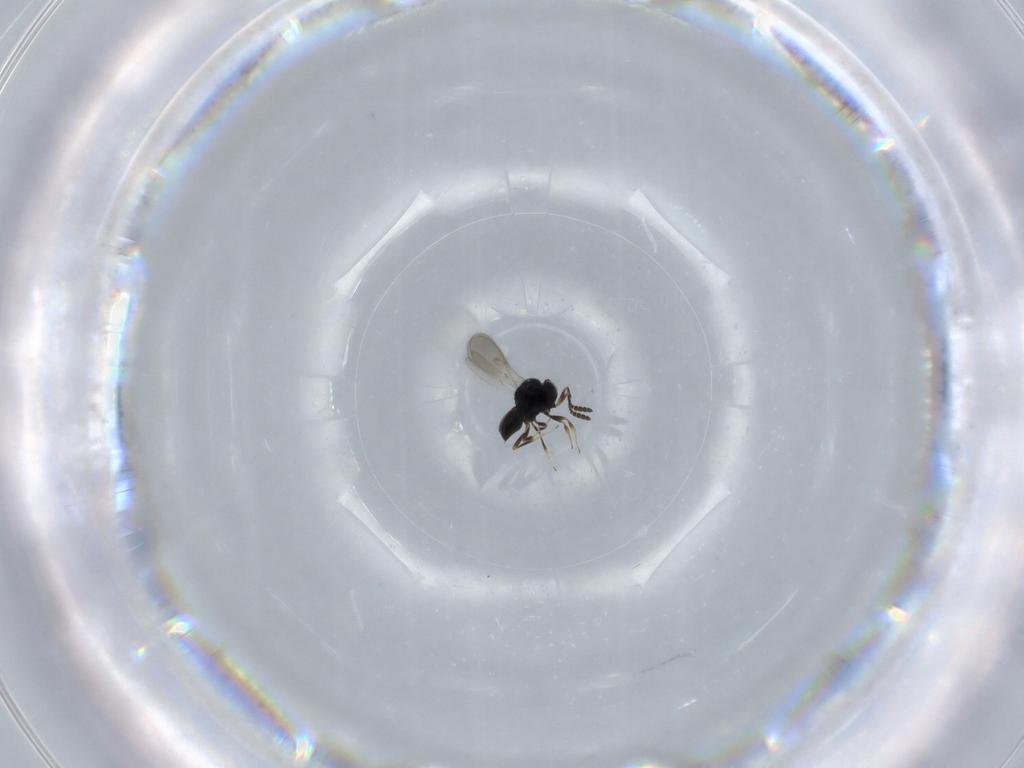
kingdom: Animalia
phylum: Arthropoda
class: Insecta
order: Hymenoptera
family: Scelionidae
